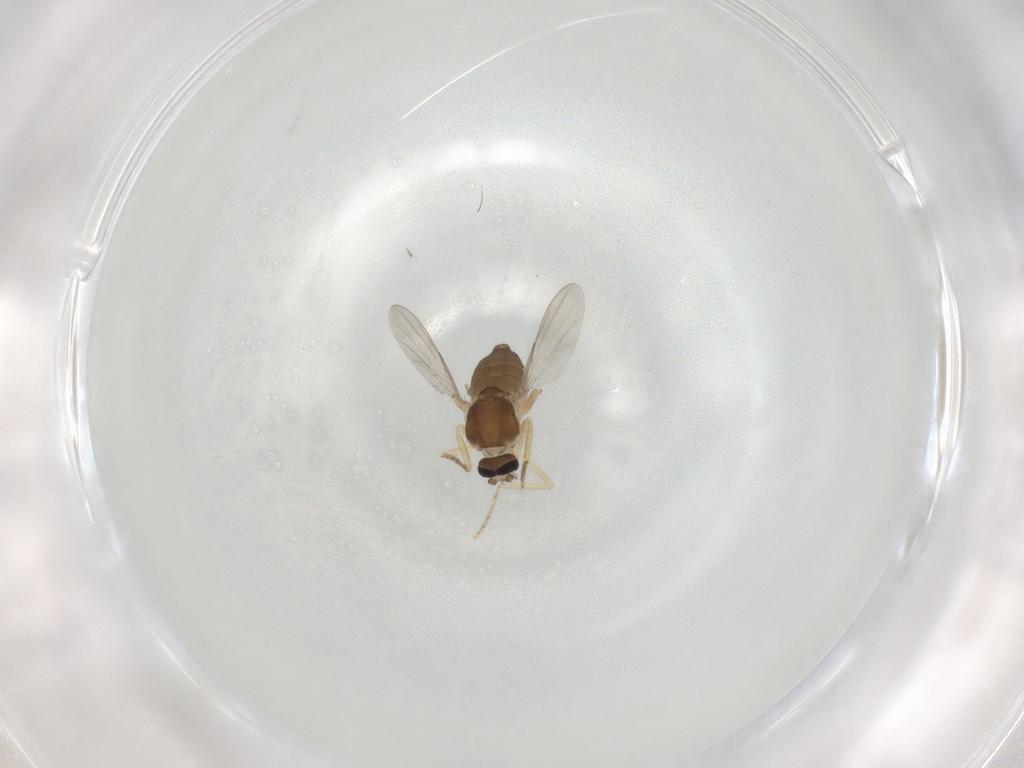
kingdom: Animalia
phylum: Arthropoda
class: Insecta
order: Diptera
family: Ceratopogonidae
